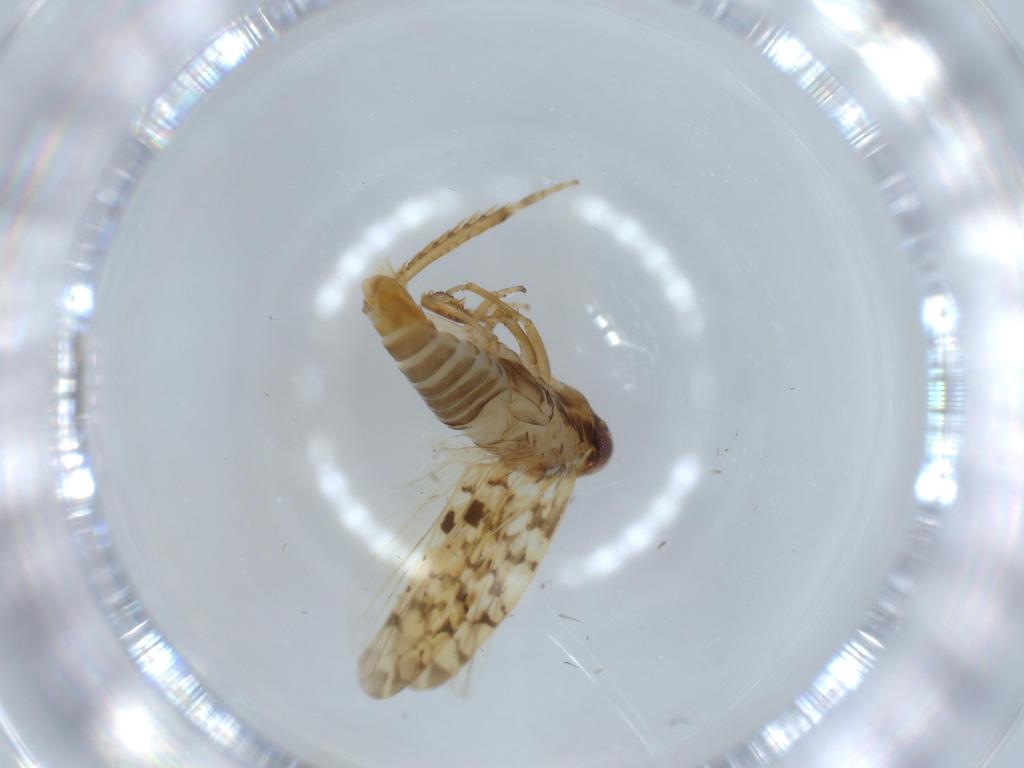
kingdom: Animalia
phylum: Arthropoda
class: Insecta
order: Hemiptera
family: Cicadellidae
